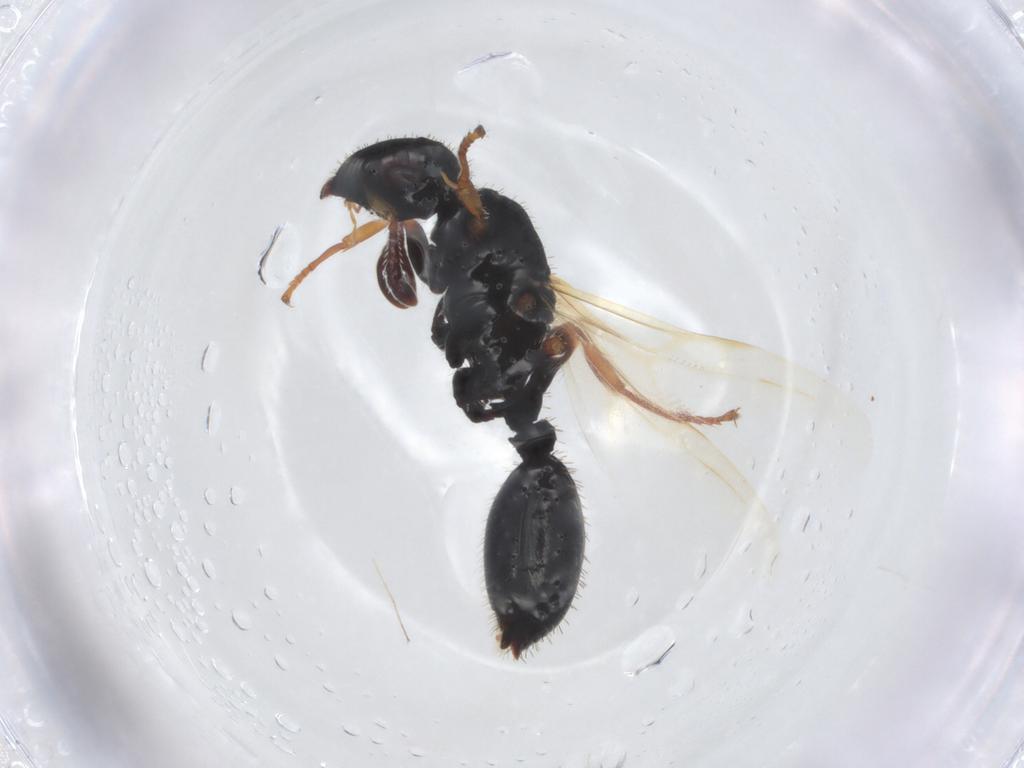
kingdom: Animalia
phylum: Arthropoda
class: Insecta
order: Hymenoptera
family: Formicidae
